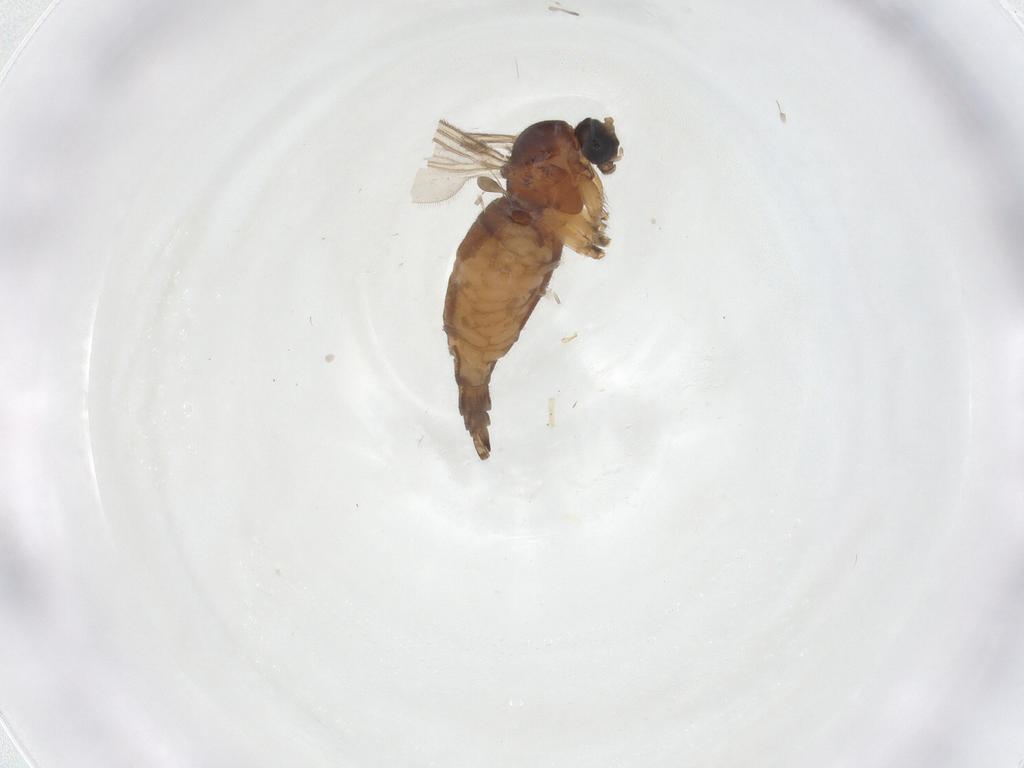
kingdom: Animalia
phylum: Arthropoda
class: Insecta
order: Diptera
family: Sciaridae
